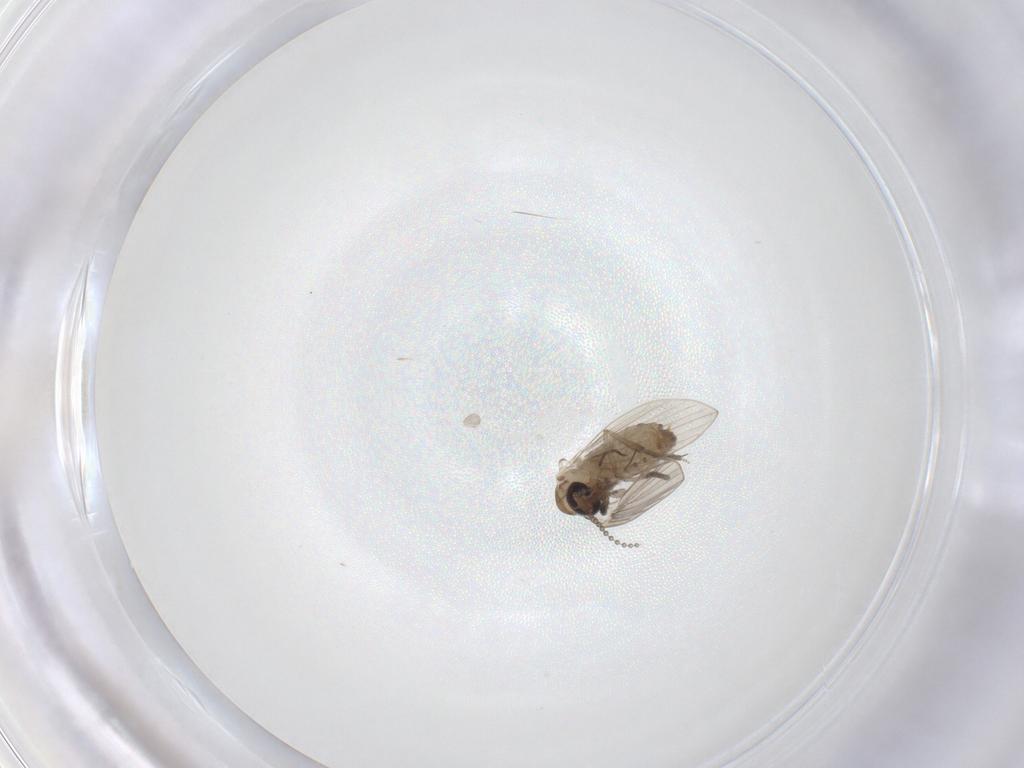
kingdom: Animalia
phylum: Arthropoda
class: Insecta
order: Diptera
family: Psychodidae
